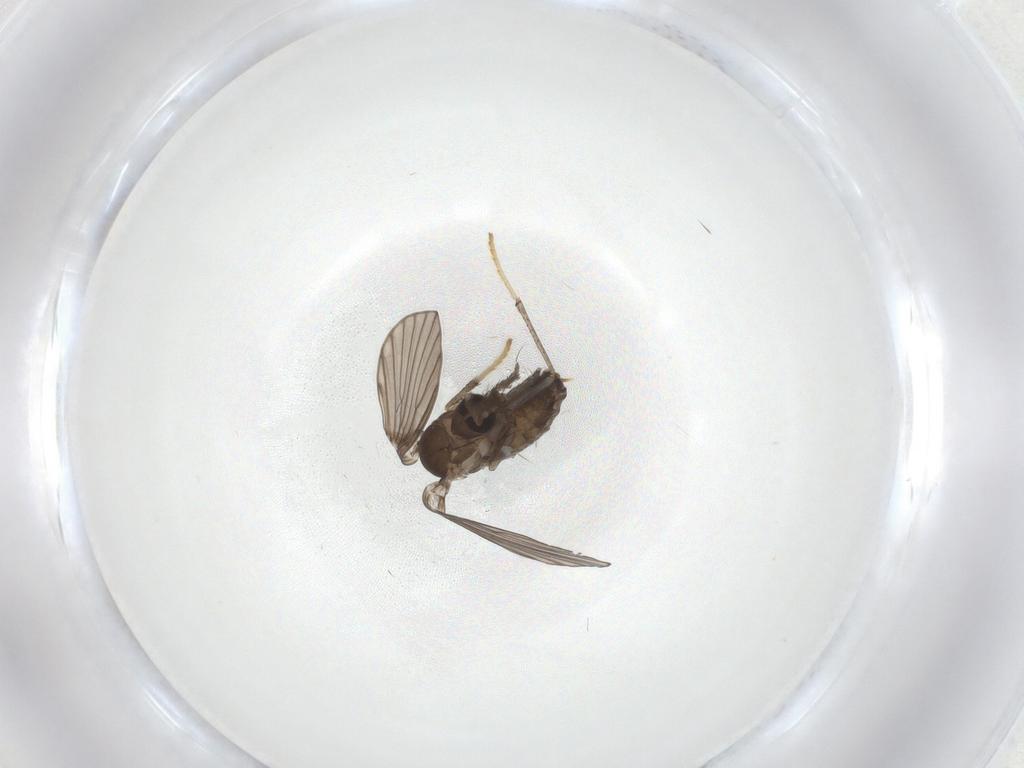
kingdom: Animalia
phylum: Arthropoda
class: Insecta
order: Diptera
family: Psychodidae
